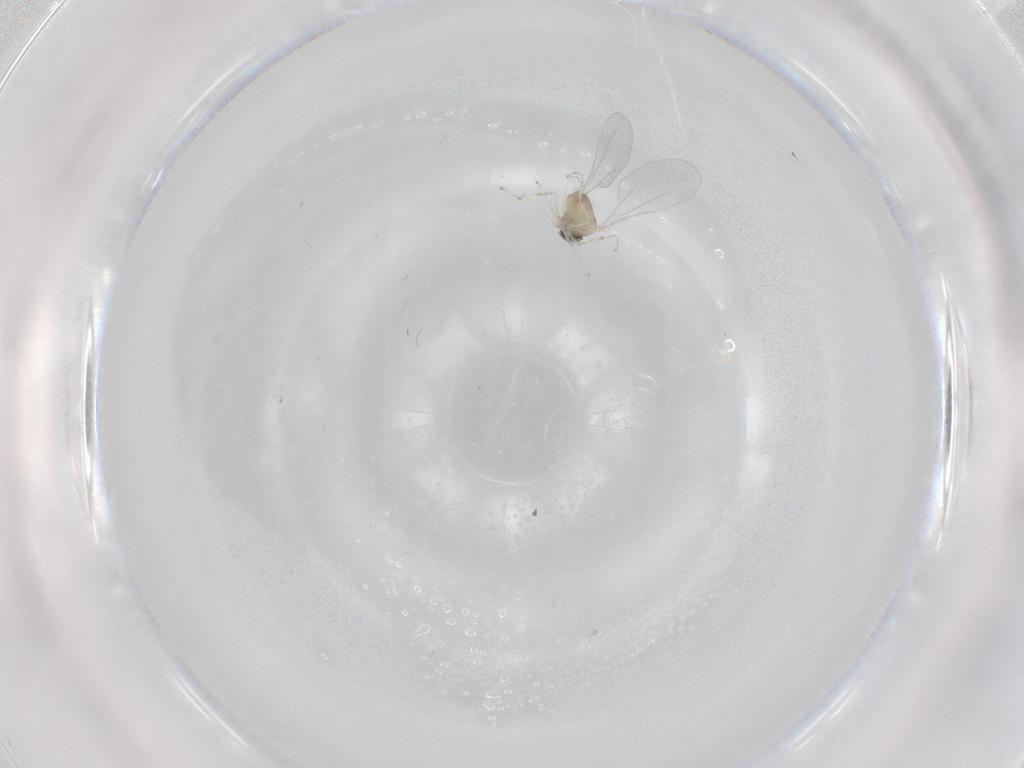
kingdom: Animalia
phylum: Arthropoda
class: Insecta
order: Diptera
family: Cecidomyiidae
